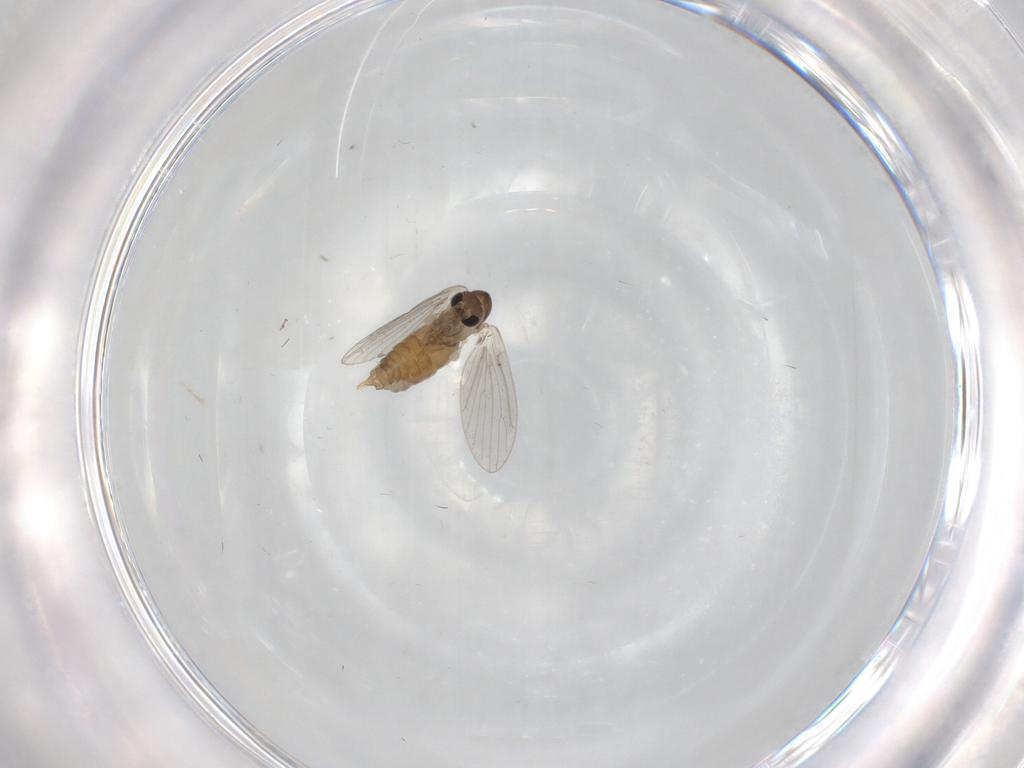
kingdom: Animalia
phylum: Arthropoda
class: Insecta
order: Diptera
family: Psychodidae
